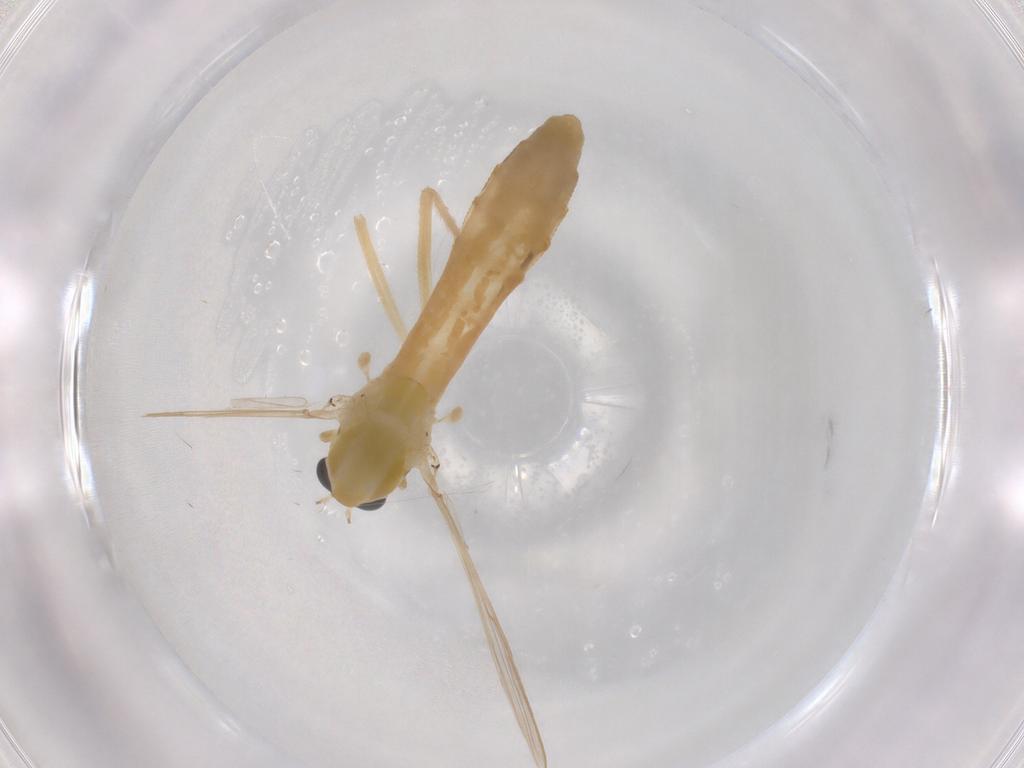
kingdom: Animalia
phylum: Arthropoda
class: Insecta
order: Diptera
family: Chironomidae
